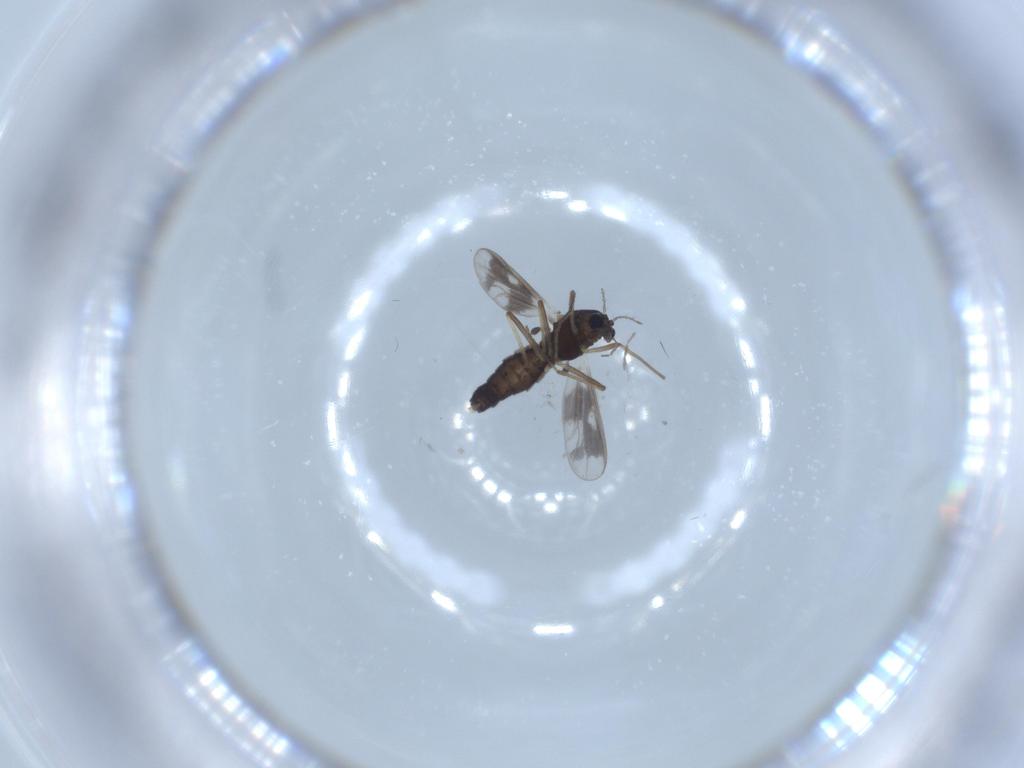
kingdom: Animalia
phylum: Arthropoda
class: Insecta
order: Diptera
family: Chironomidae
